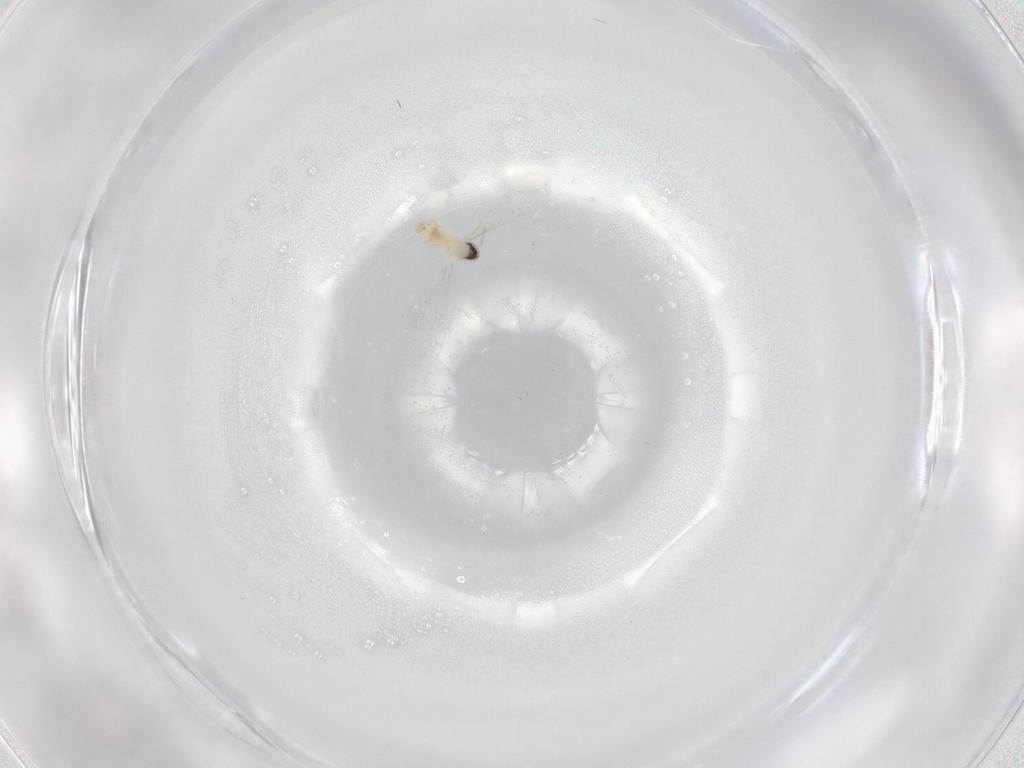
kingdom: Animalia
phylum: Arthropoda
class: Insecta
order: Diptera
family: Cecidomyiidae
